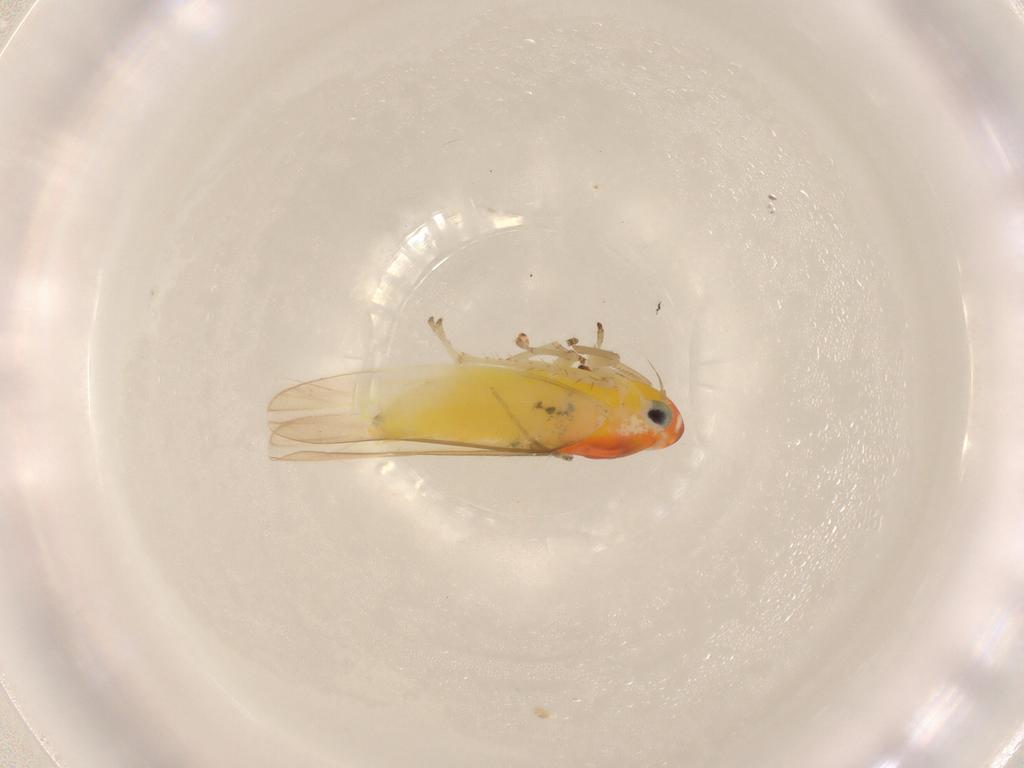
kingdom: Animalia
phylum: Arthropoda
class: Insecta
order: Hemiptera
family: Cicadellidae
